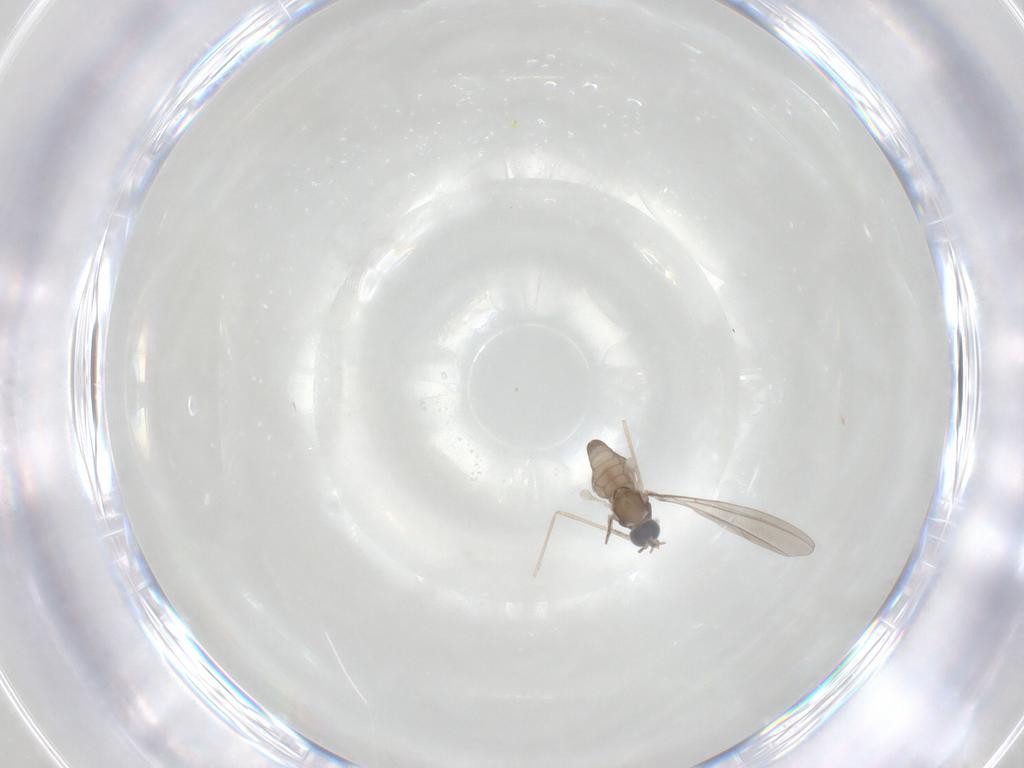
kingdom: Animalia
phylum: Arthropoda
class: Insecta
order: Diptera
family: Cecidomyiidae
